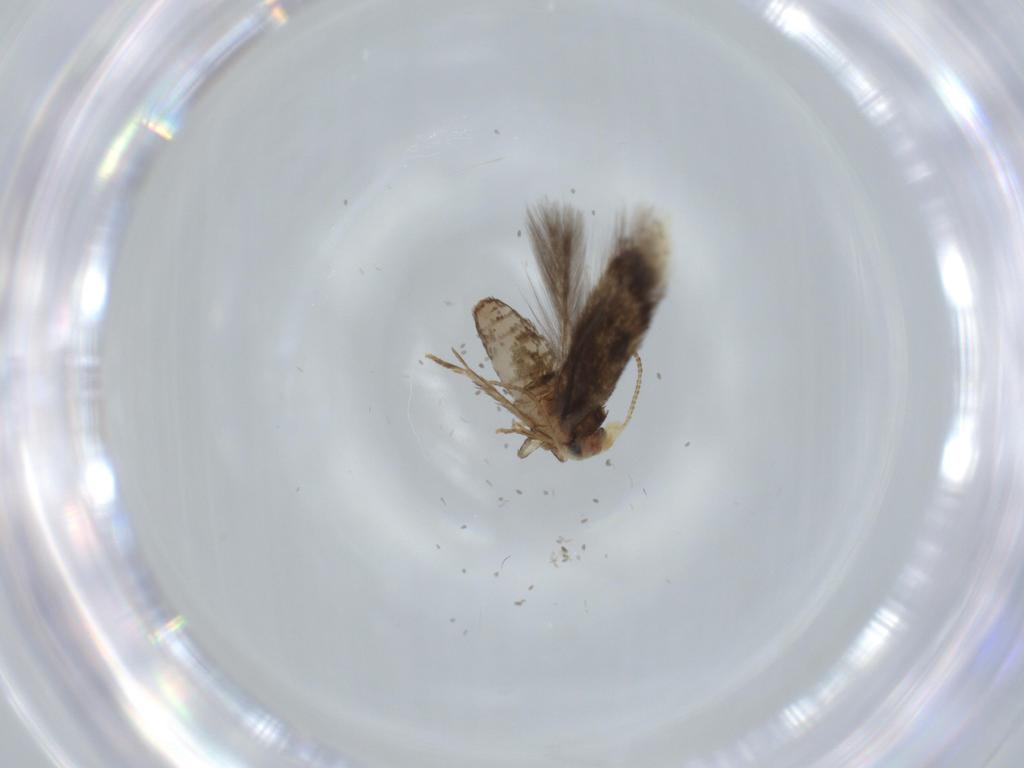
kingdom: Animalia
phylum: Arthropoda
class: Insecta
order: Lepidoptera
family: Nepticulidae
